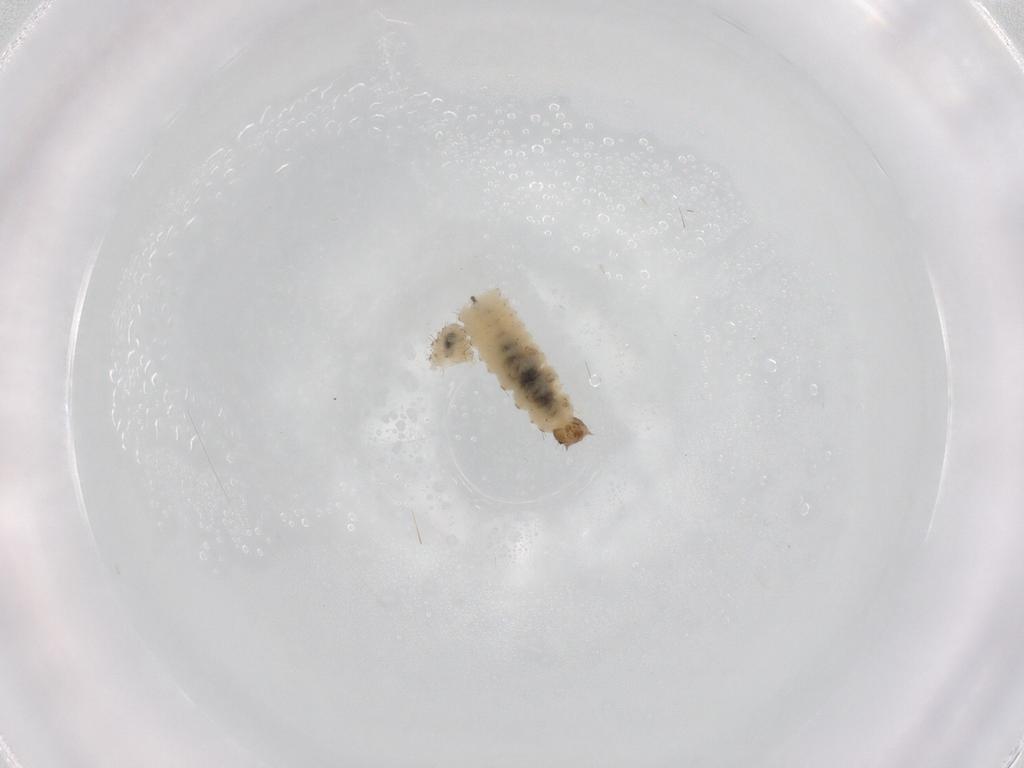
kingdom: Animalia
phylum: Arthropoda
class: Insecta
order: Coleoptera
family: Latridiidae
